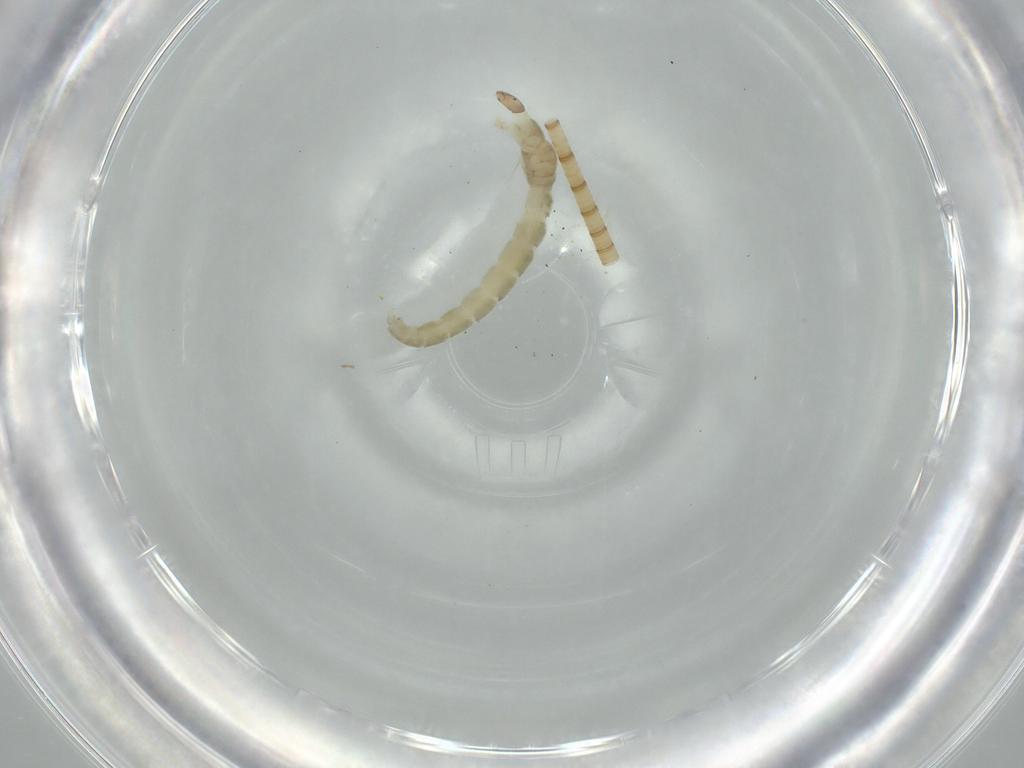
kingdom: Animalia
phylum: Arthropoda
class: Insecta
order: Diptera
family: Chironomidae
